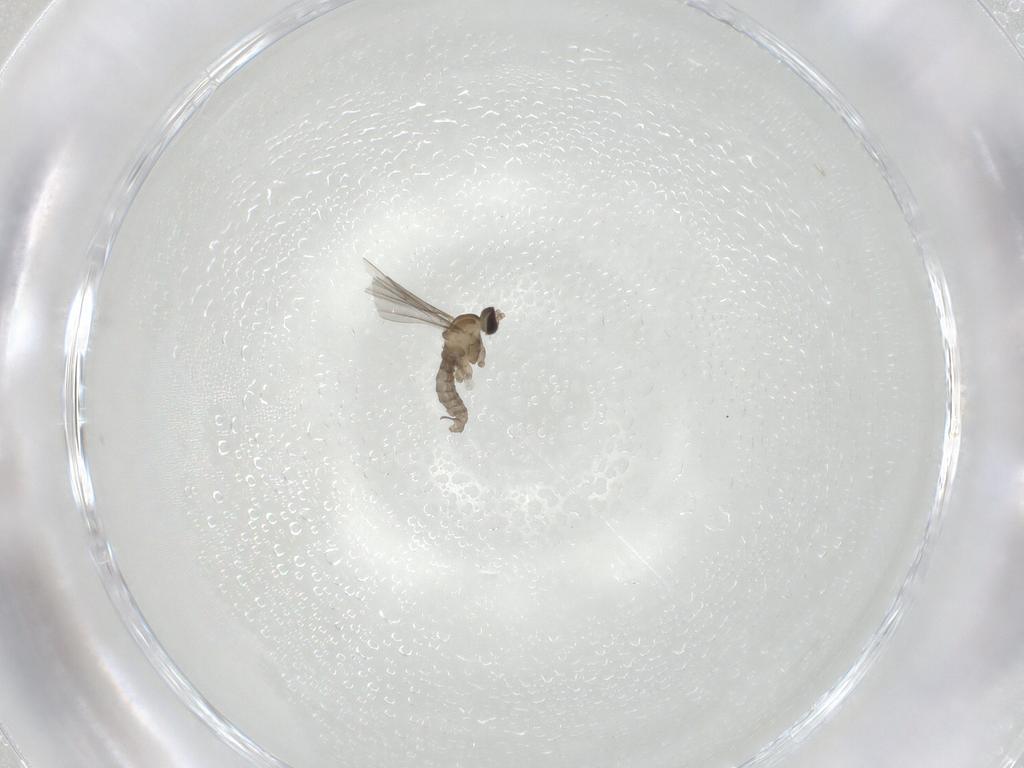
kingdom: Animalia
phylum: Arthropoda
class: Insecta
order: Diptera
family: Ceratopogonidae
